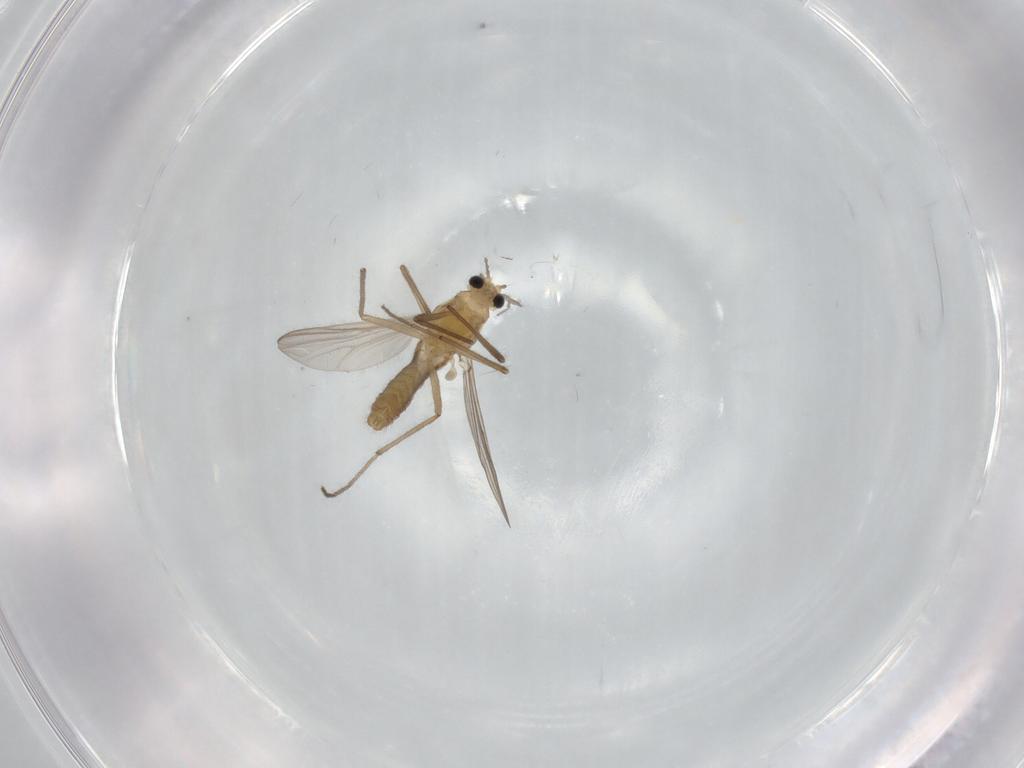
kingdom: Animalia
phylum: Arthropoda
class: Insecta
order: Diptera
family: Chironomidae
